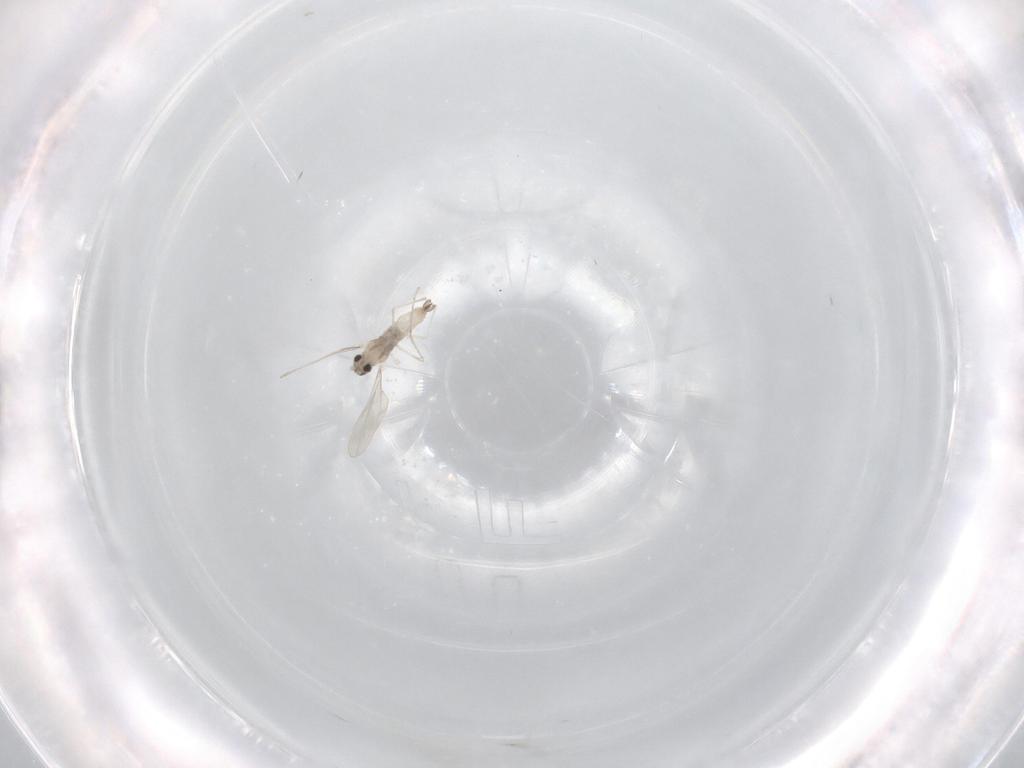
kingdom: Animalia
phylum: Arthropoda
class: Insecta
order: Diptera
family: Cecidomyiidae
